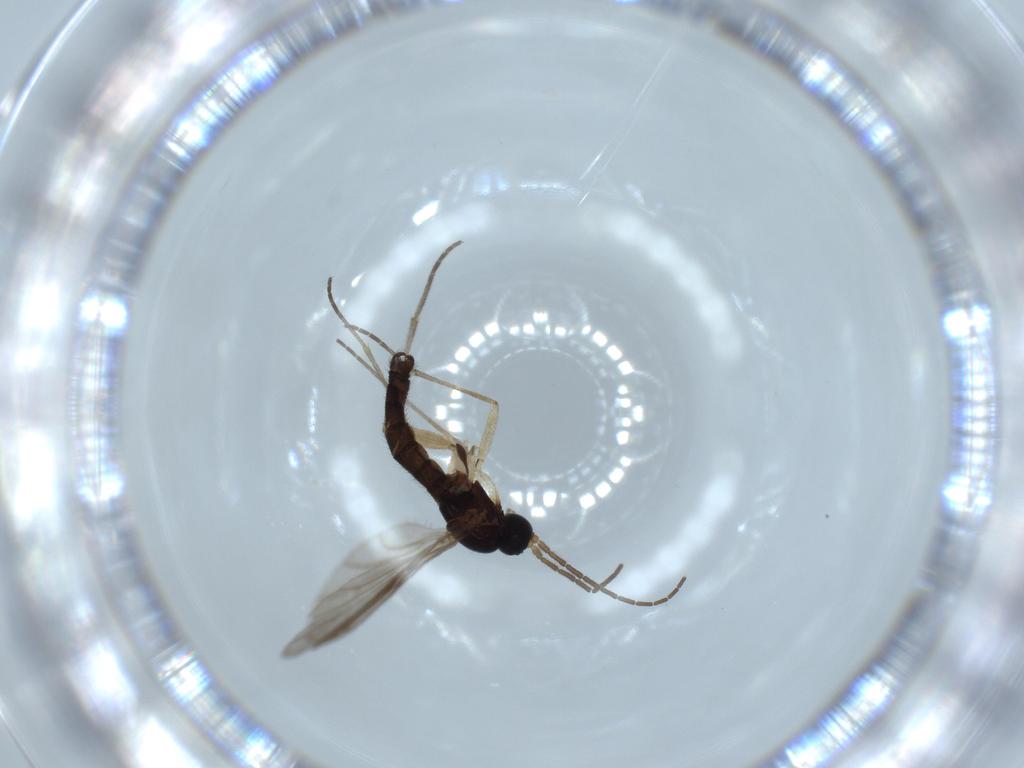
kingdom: Animalia
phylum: Arthropoda
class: Insecta
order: Diptera
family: Sciaridae
